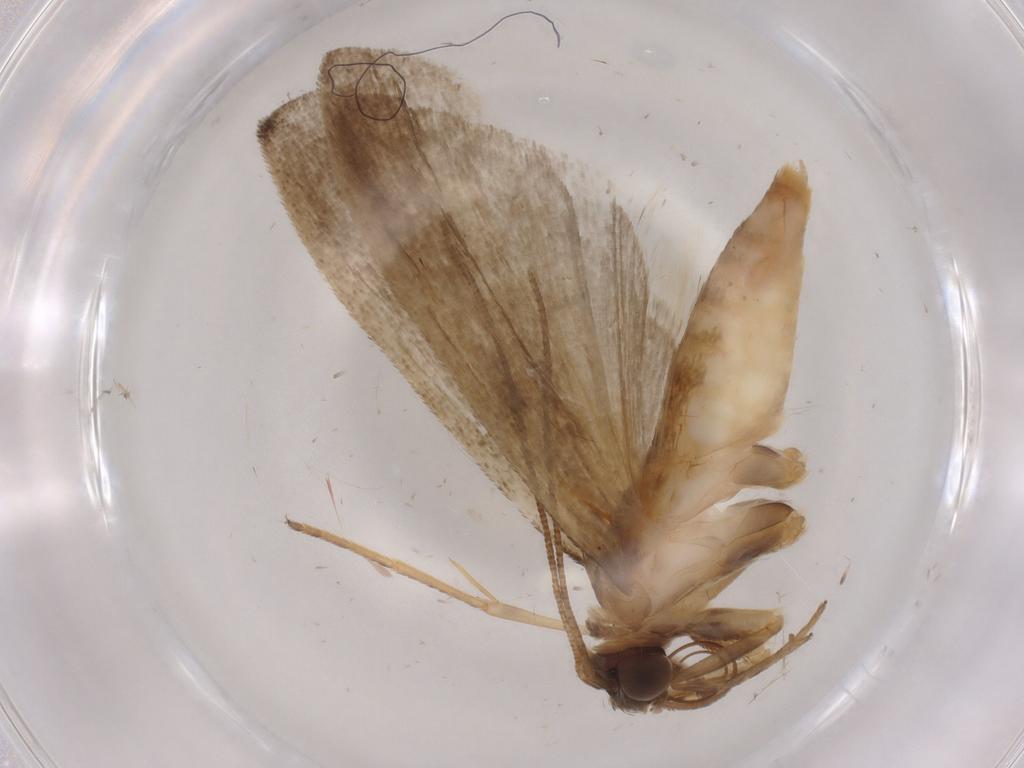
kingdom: Animalia
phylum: Arthropoda
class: Insecta
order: Lepidoptera
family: Noctuidae
